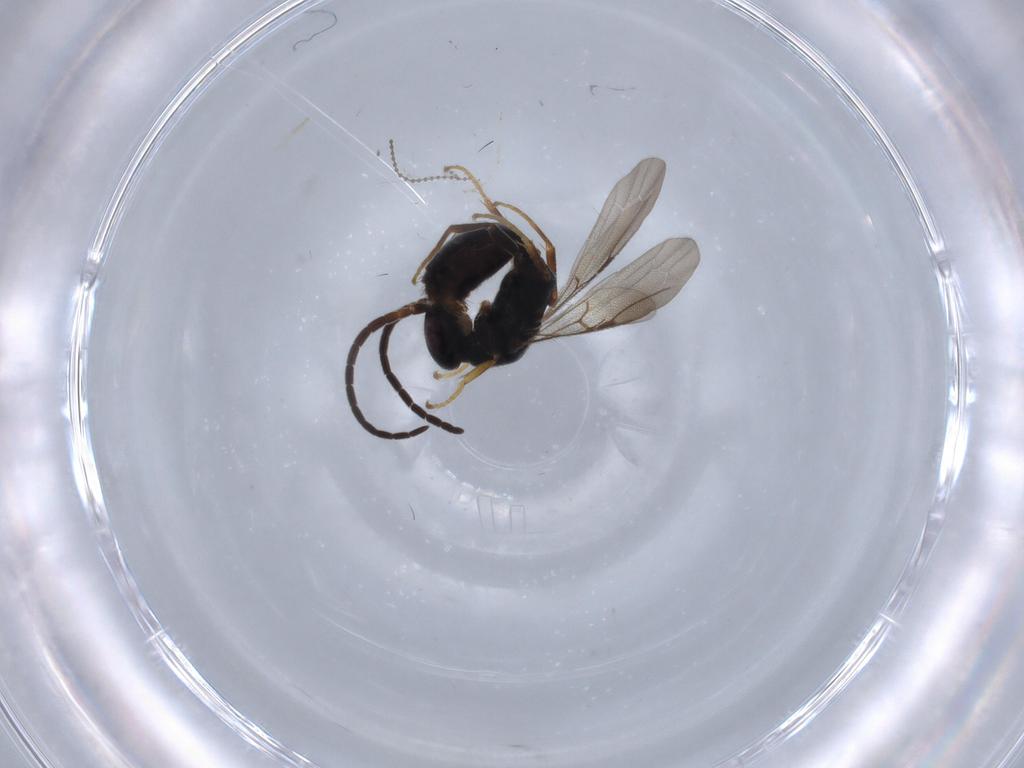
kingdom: Animalia
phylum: Arthropoda
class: Insecta
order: Hymenoptera
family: Bethylidae
